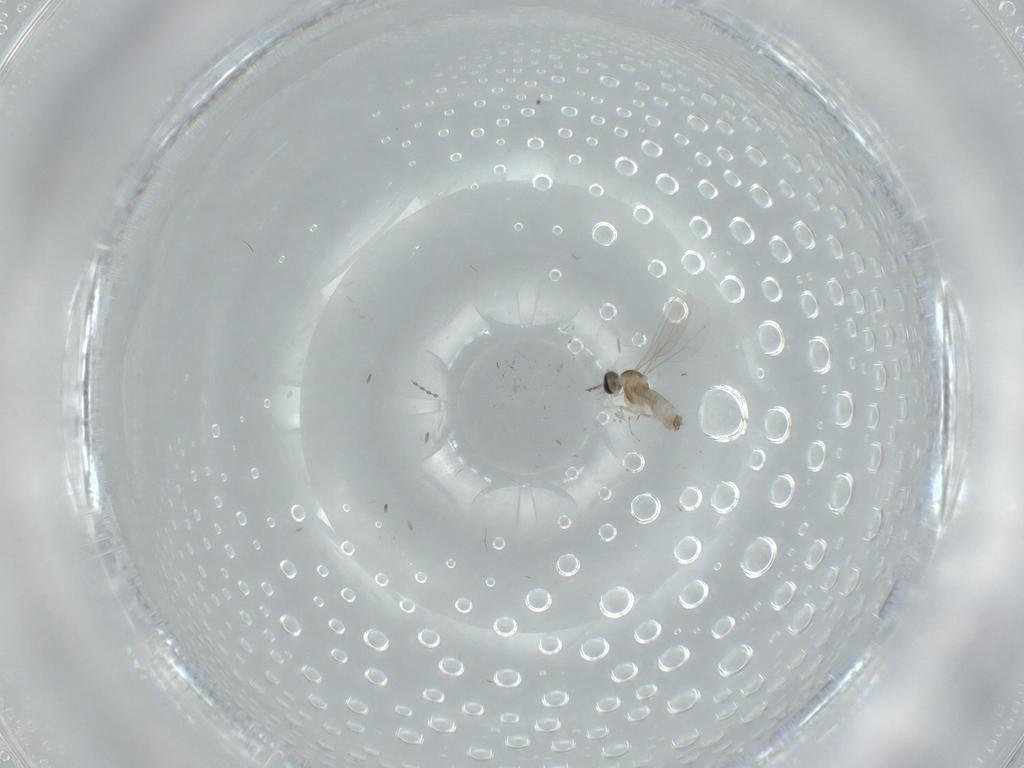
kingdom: Animalia
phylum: Arthropoda
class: Insecta
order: Diptera
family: Cecidomyiidae
